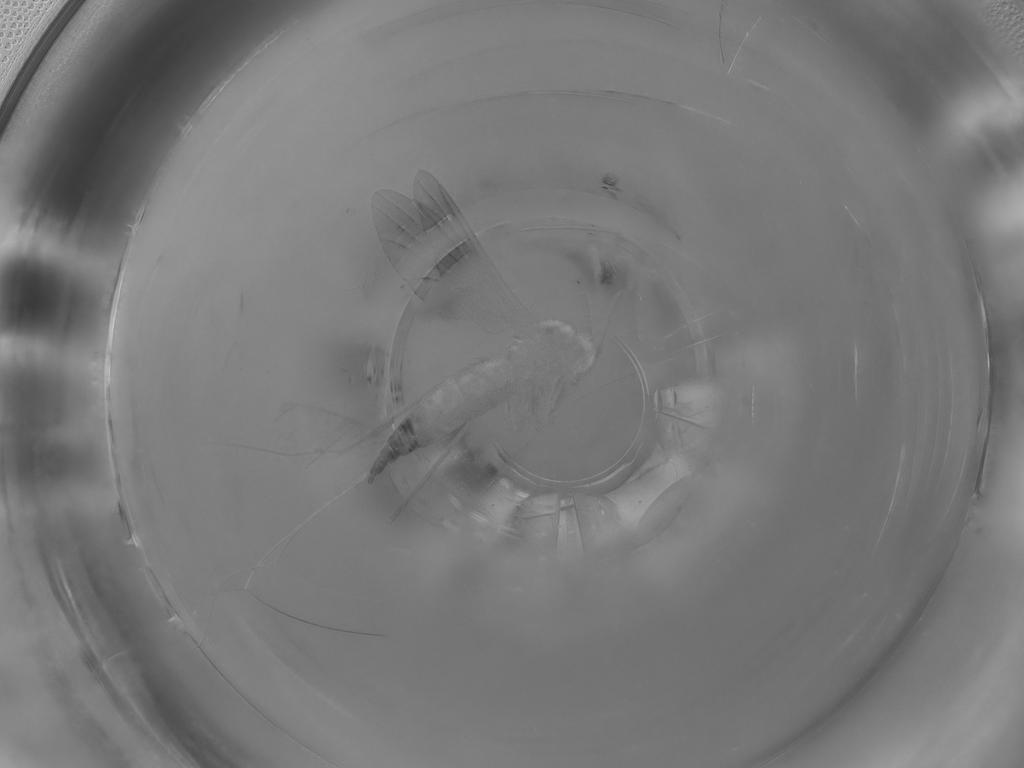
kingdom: Animalia
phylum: Arthropoda
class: Insecta
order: Diptera
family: Sciaridae
